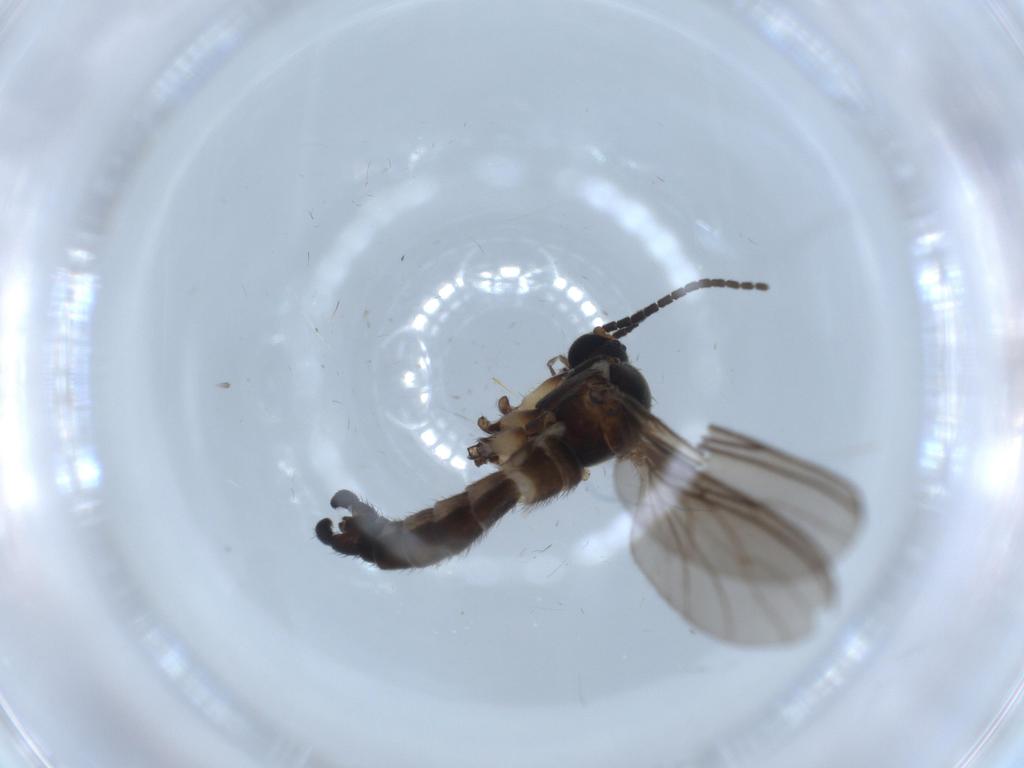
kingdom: Animalia
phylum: Arthropoda
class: Insecta
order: Diptera
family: Sciaridae
